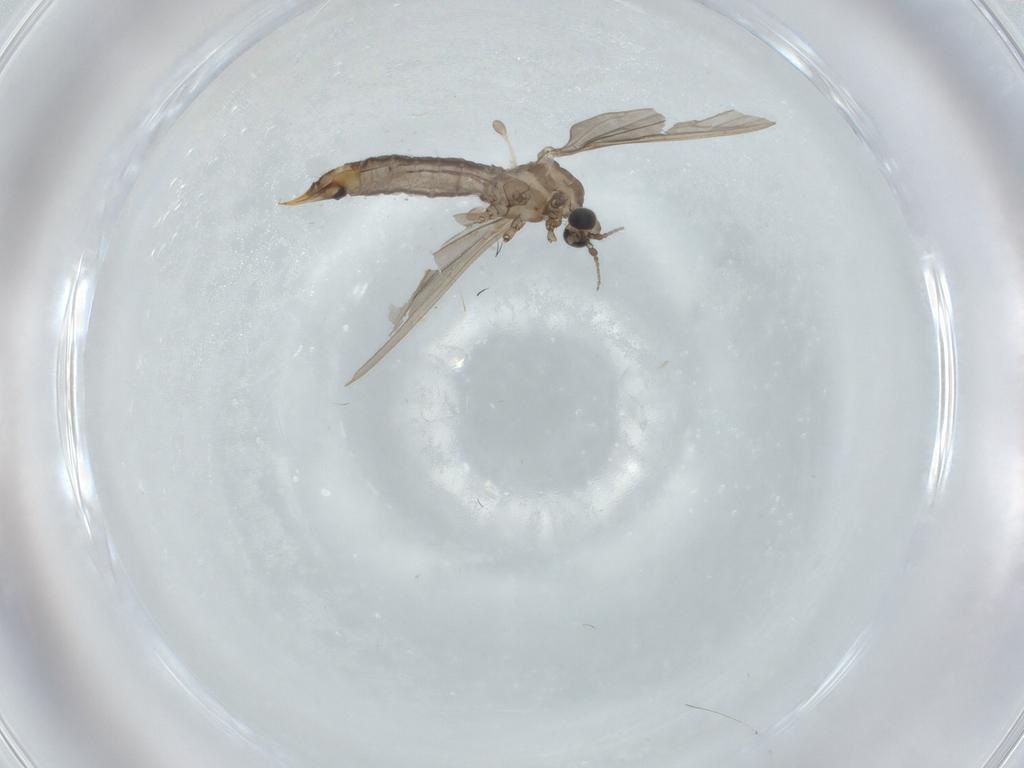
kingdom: Animalia
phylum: Arthropoda
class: Insecta
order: Diptera
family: Limoniidae
